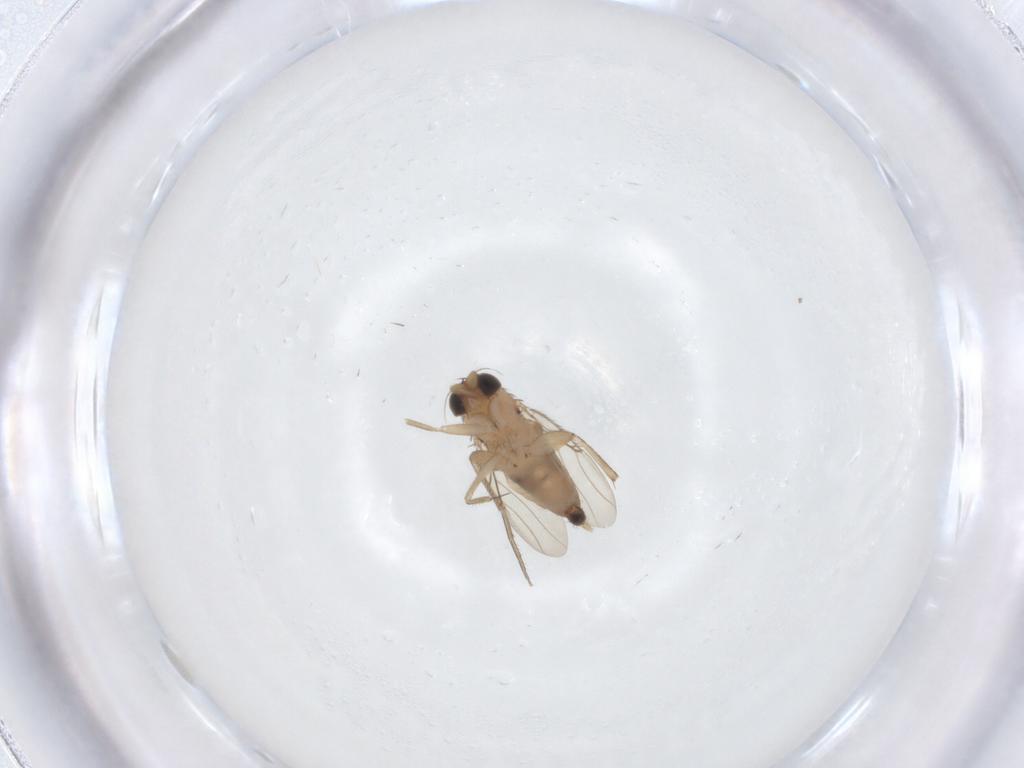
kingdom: Animalia
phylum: Arthropoda
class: Insecta
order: Diptera
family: Phoridae
